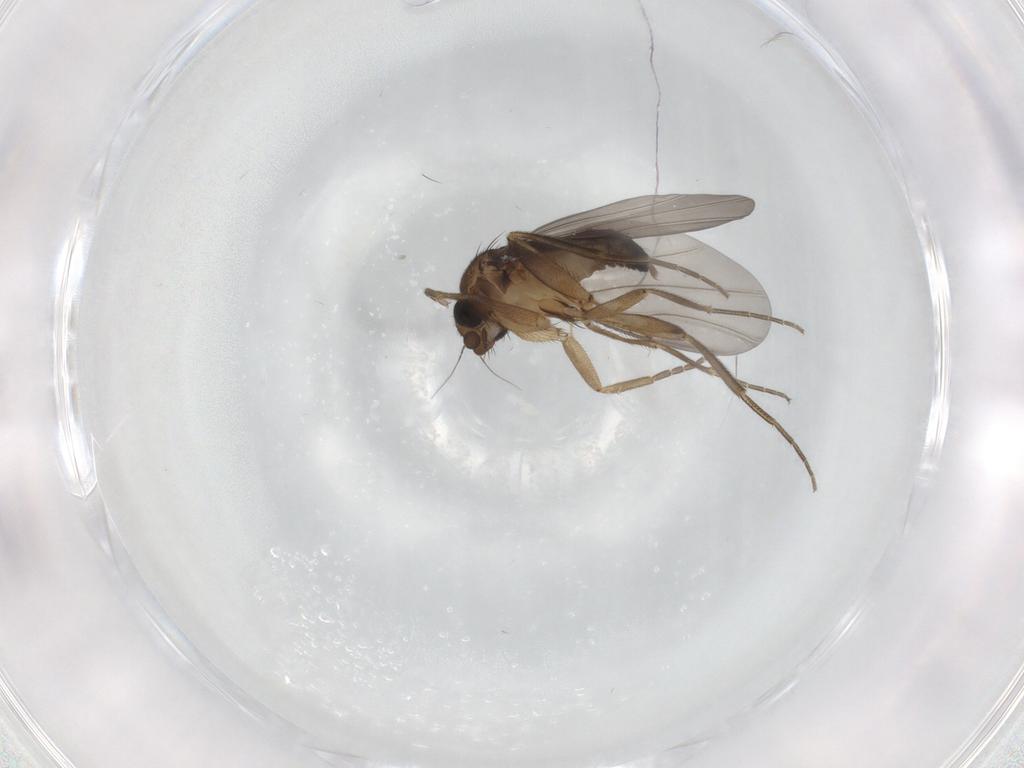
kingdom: Animalia
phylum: Arthropoda
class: Insecta
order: Diptera
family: Phoridae
